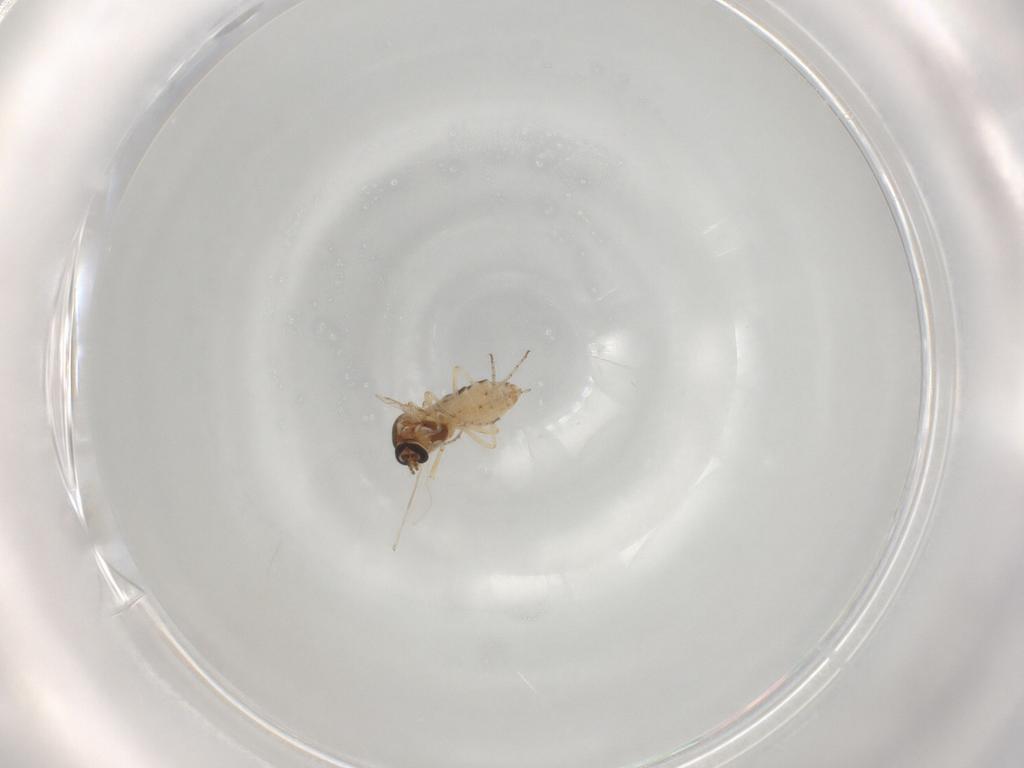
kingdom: Animalia
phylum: Arthropoda
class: Insecta
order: Diptera
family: Ceratopogonidae
